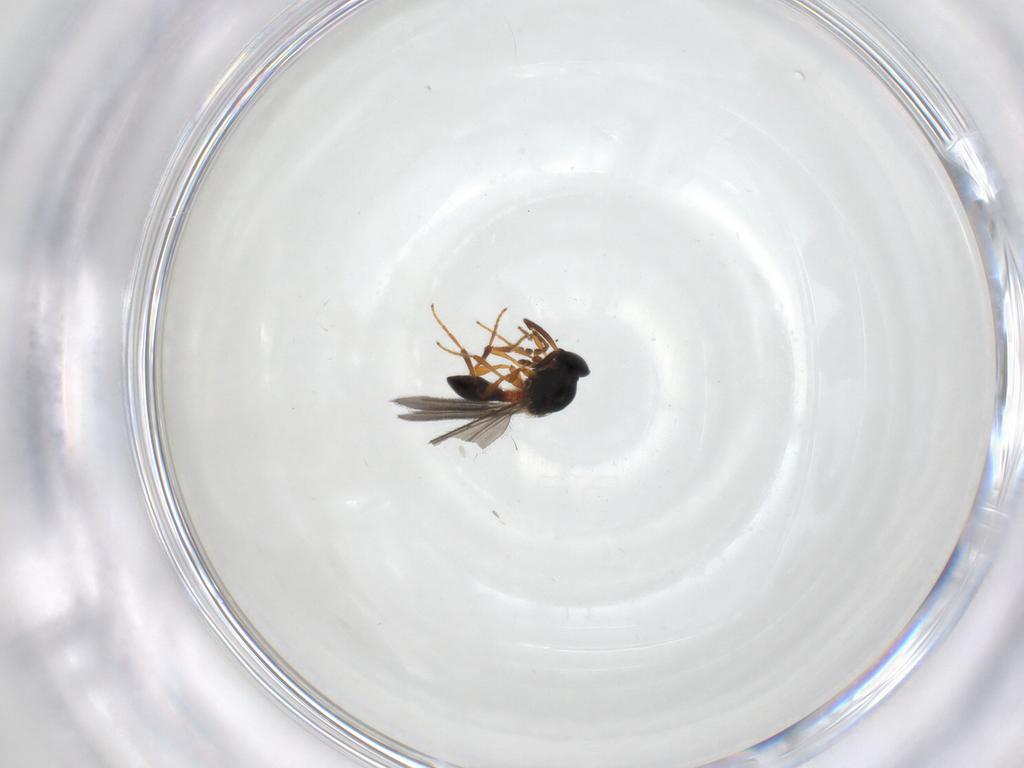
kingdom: Animalia
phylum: Arthropoda
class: Insecta
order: Hymenoptera
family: Platygastridae
